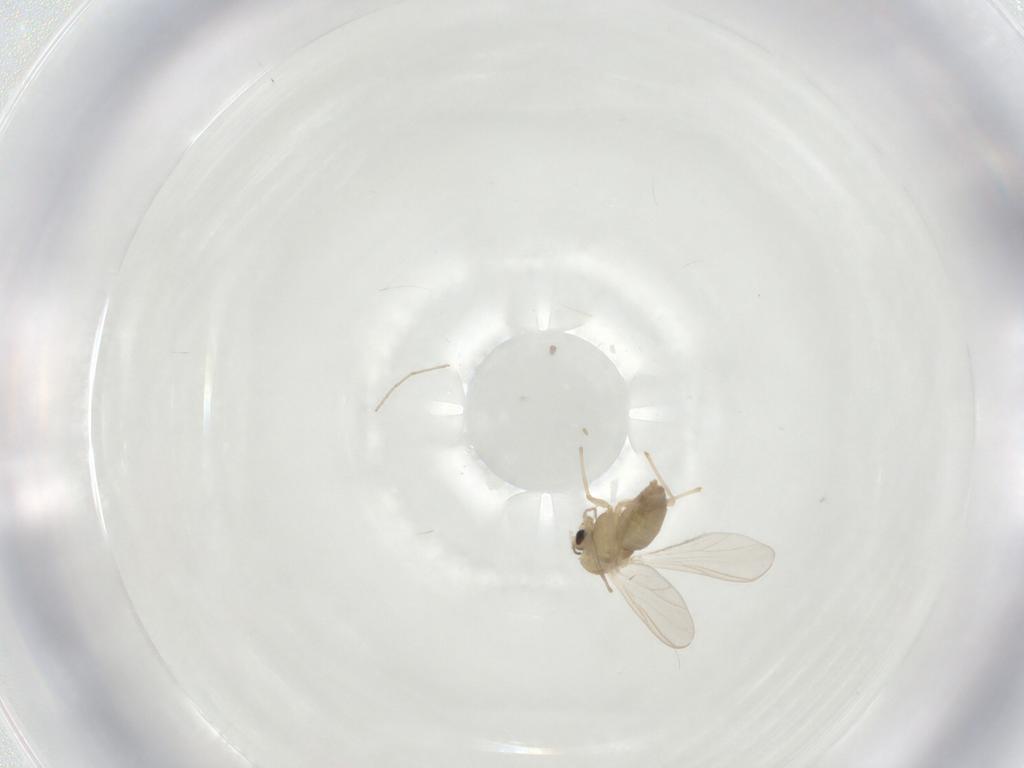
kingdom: Animalia
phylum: Arthropoda
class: Insecta
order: Diptera
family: Chironomidae
